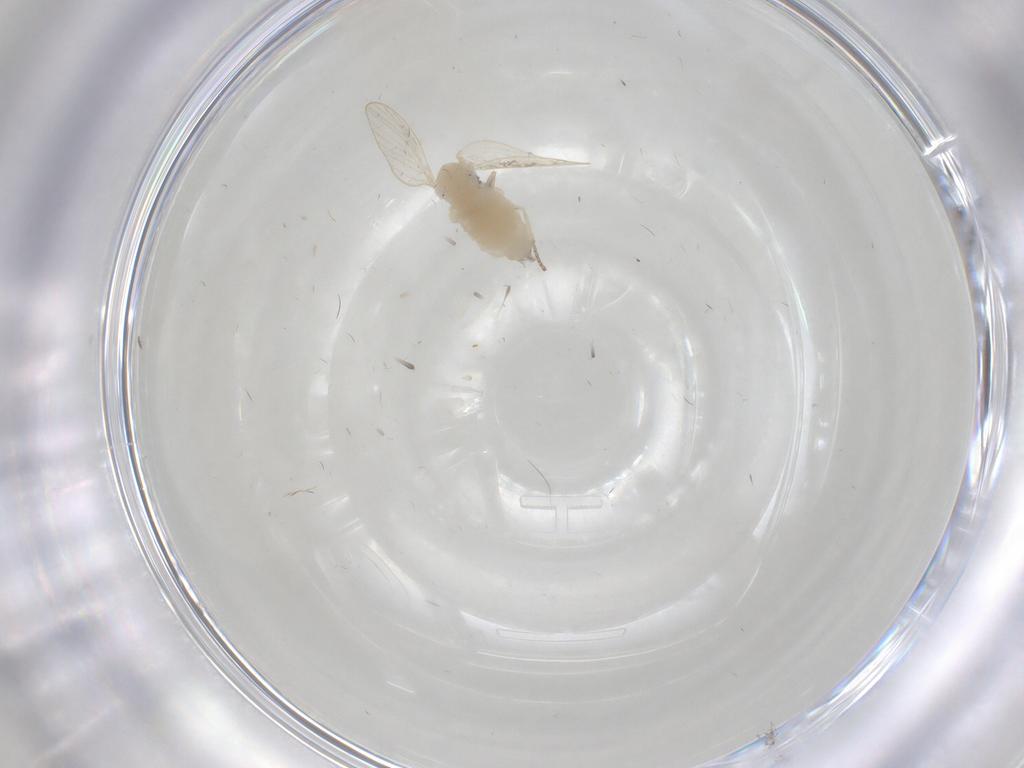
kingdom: Animalia
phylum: Arthropoda
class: Insecta
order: Diptera
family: Psychodidae
